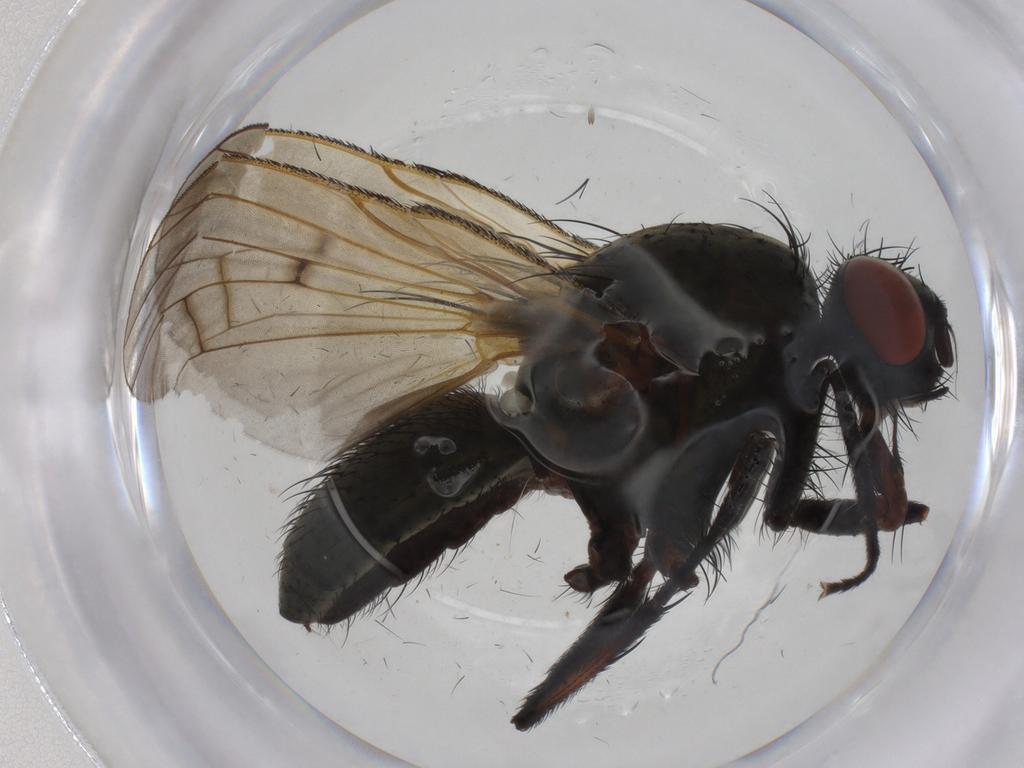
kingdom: Animalia
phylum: Arthropoda
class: Insecta
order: Diptera
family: Anthomyiidae
